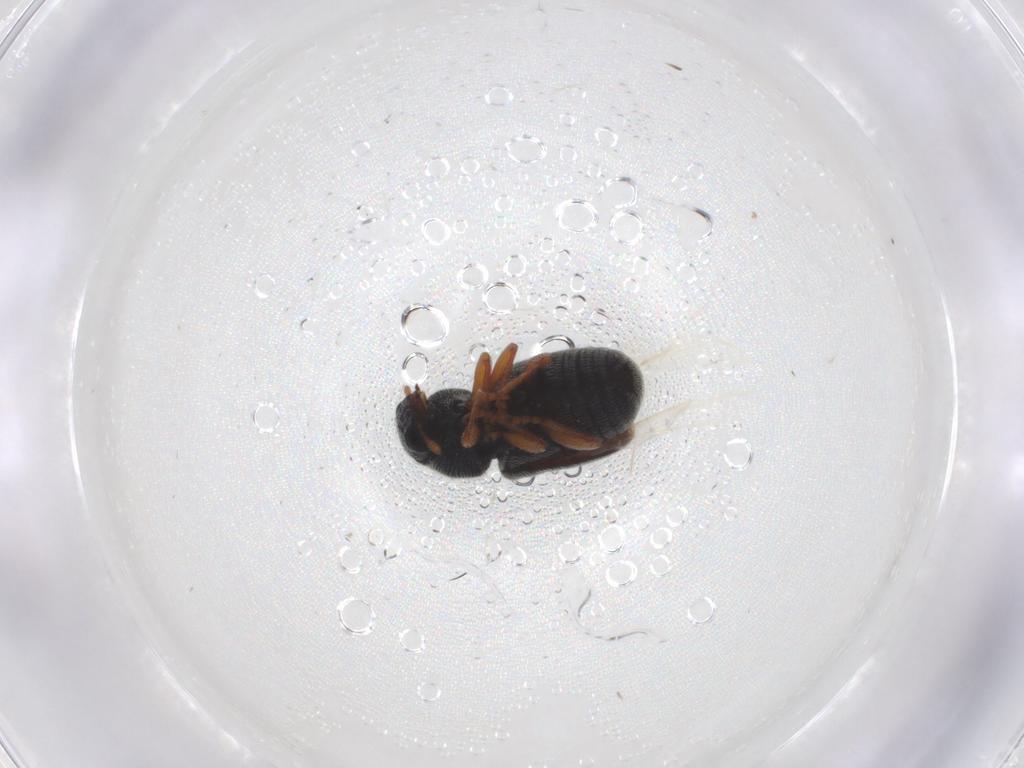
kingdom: Animalia
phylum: Arthropoda
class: Insecta
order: Coleoptera
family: Anthribidae
